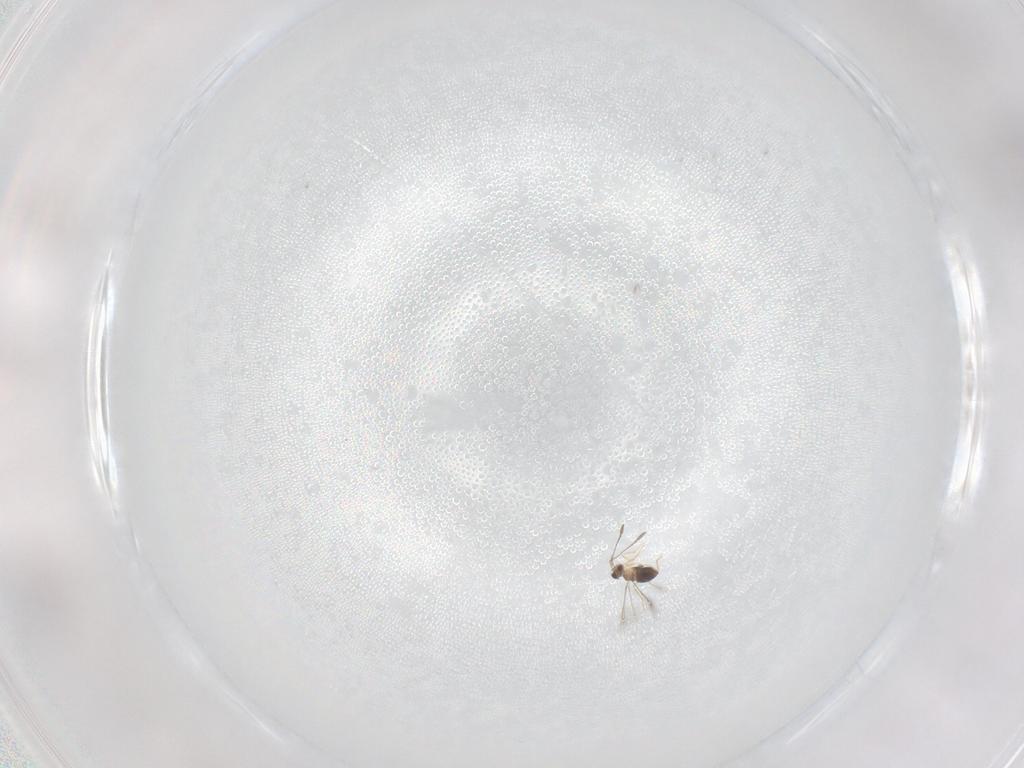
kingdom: Animalia
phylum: Arthropoda
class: Insecta
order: Hymenoptera
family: Mymaridae
